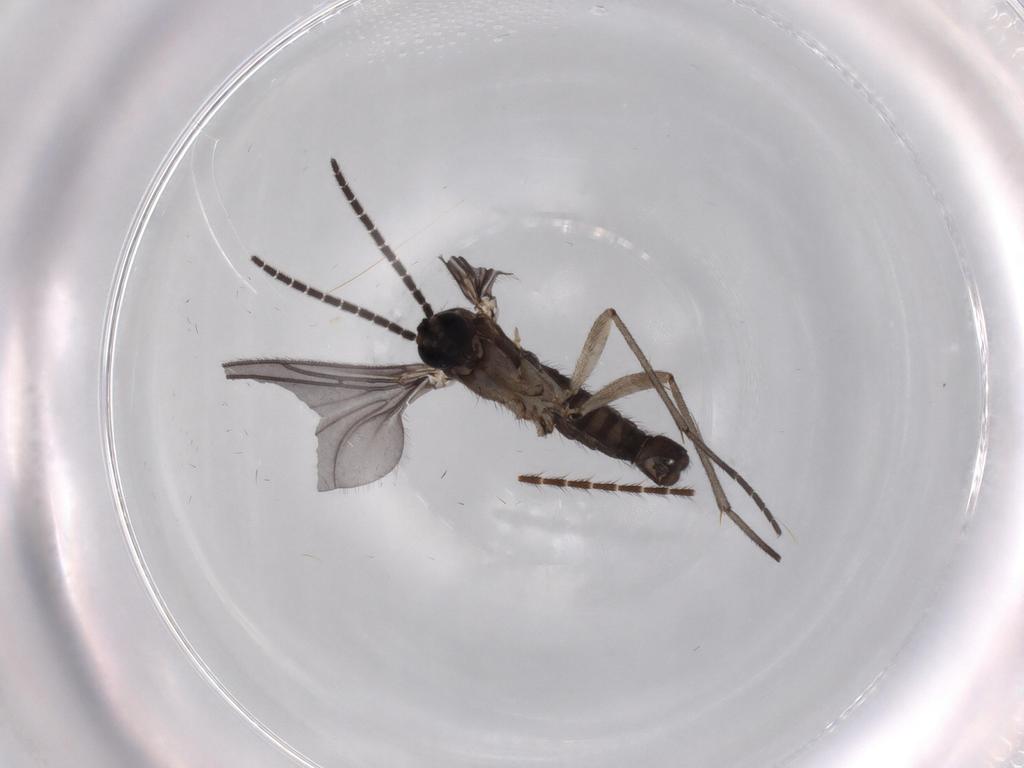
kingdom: Animalia
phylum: Arthropoda
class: Insecta
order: Diptera
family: Sciaridae
